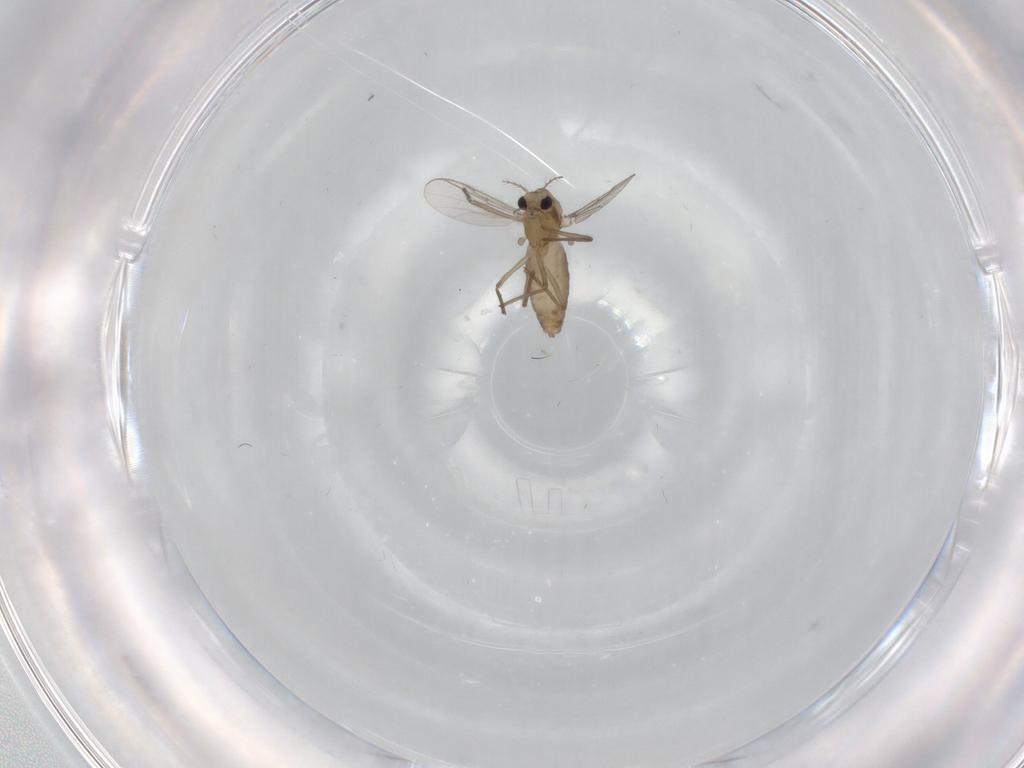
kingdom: Animalia
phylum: Arthropoda
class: Insecta
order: Diptera
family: Chironomidae
